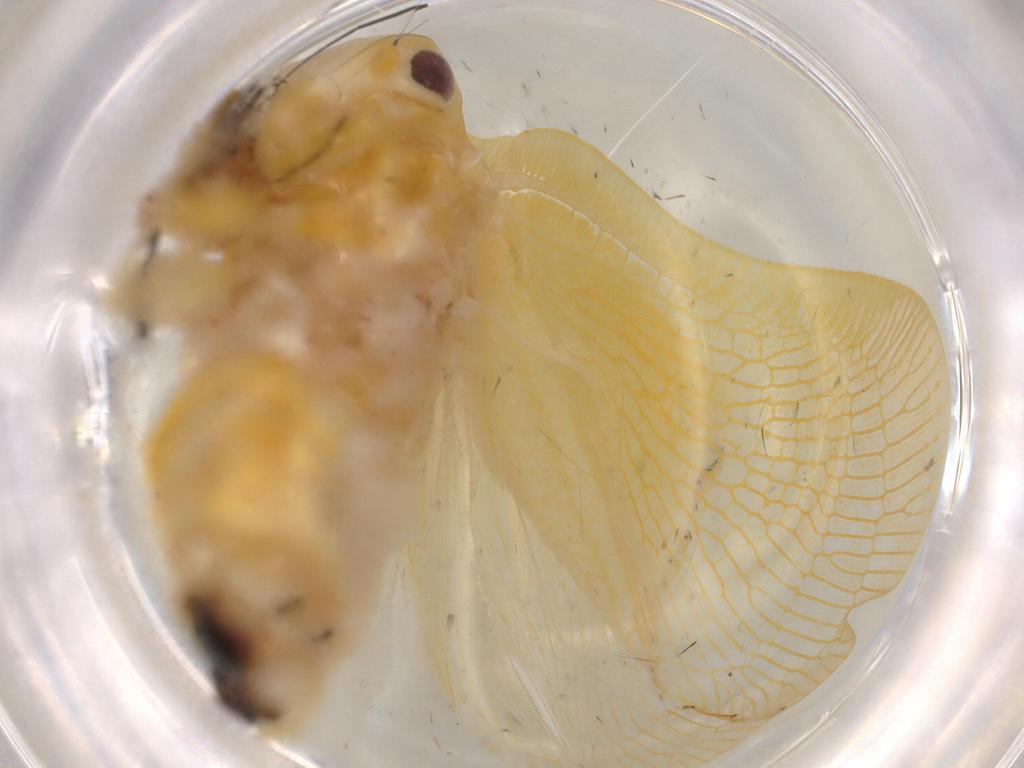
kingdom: Animalia
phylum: Arthropoda
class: Insecta
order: Hemiptera
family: Flatidae
